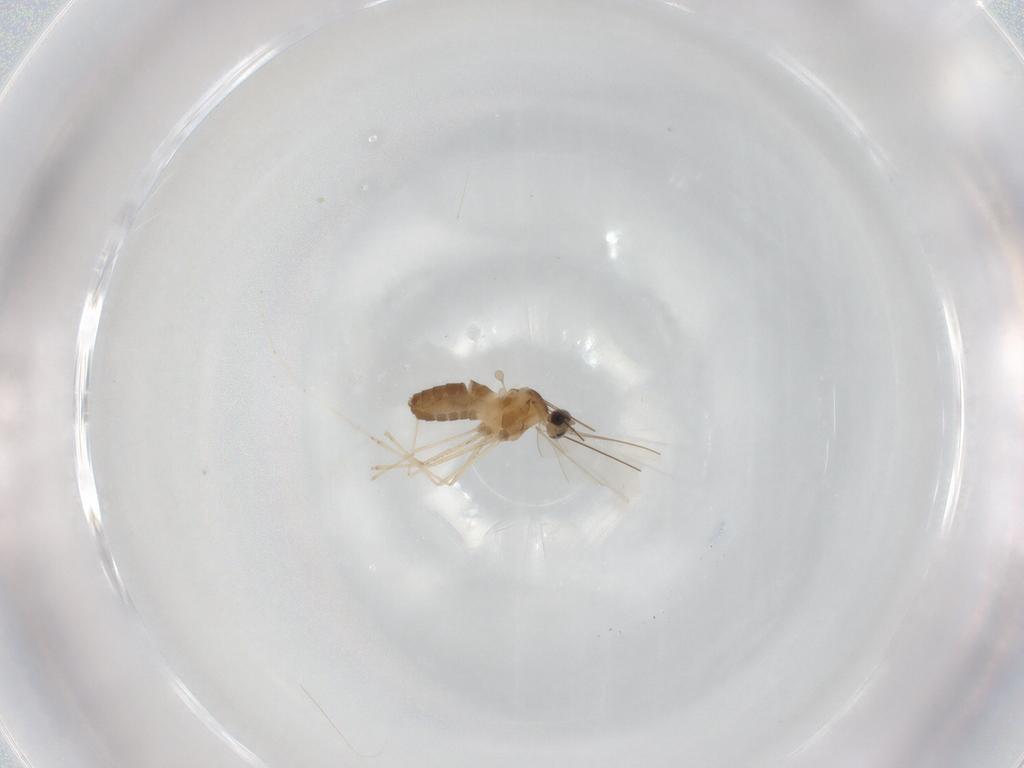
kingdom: Animalia
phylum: Arthropoda
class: Insecta
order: Diptera
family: Cecidomyiidae
